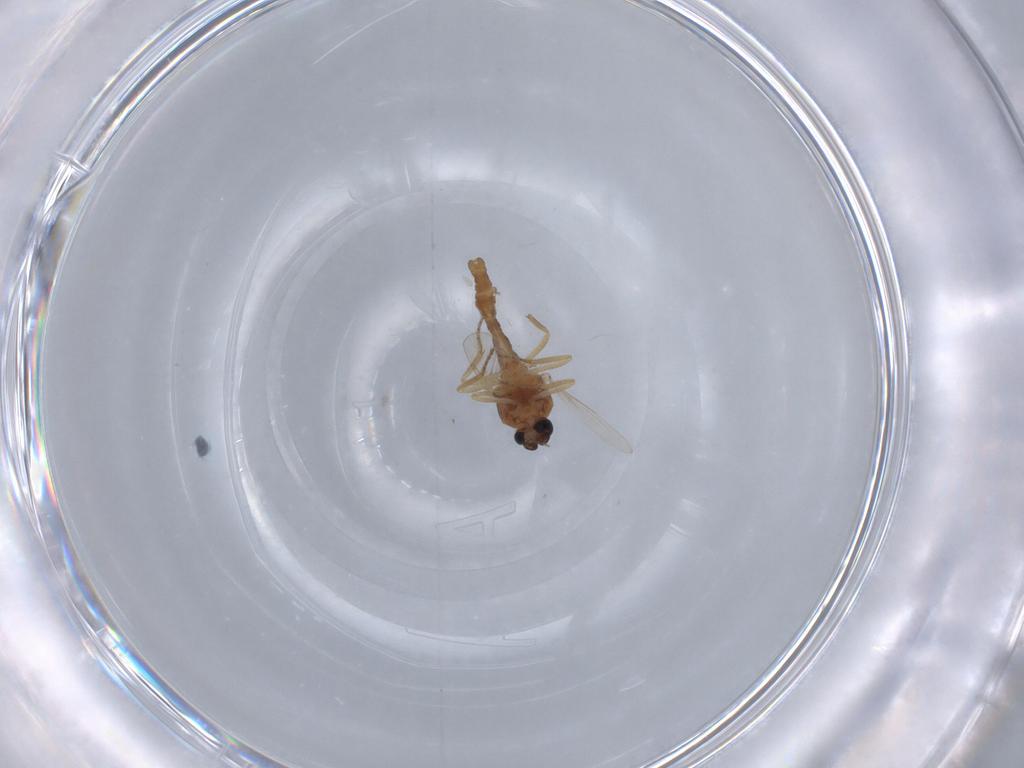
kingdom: Animalia
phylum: Arthropoda
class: Insecta
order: Diptera
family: Ceratopogonidae
